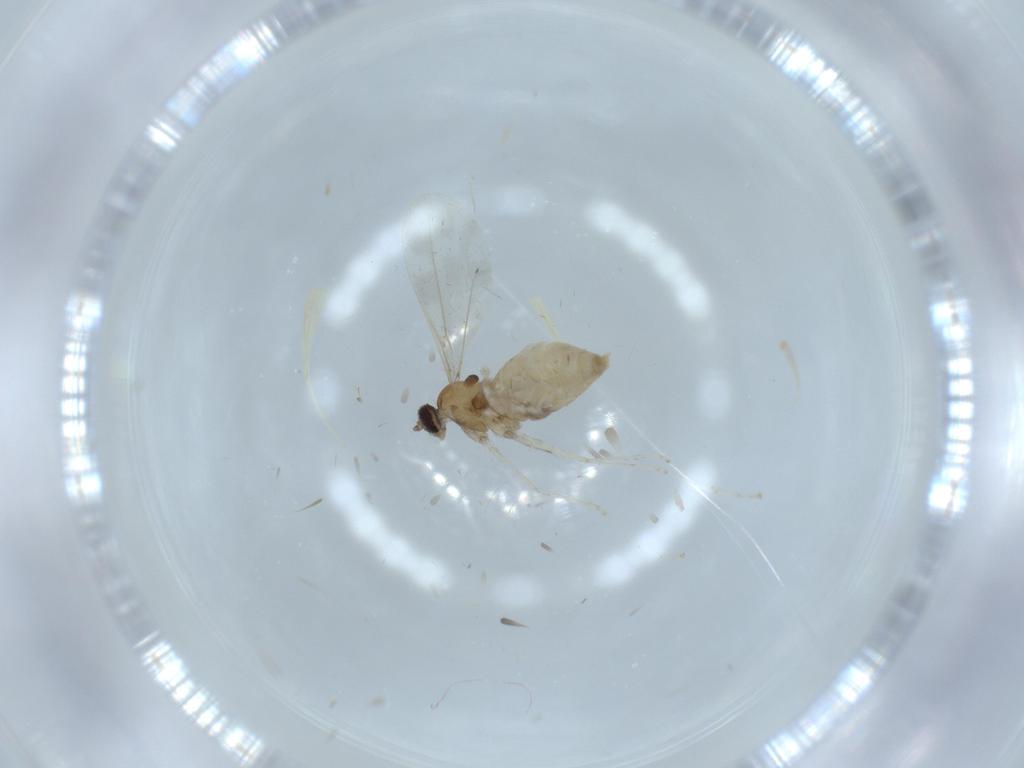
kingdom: Animalia
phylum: Arthropoda
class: Insecta
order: Diptera
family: Cecidomyiidae
